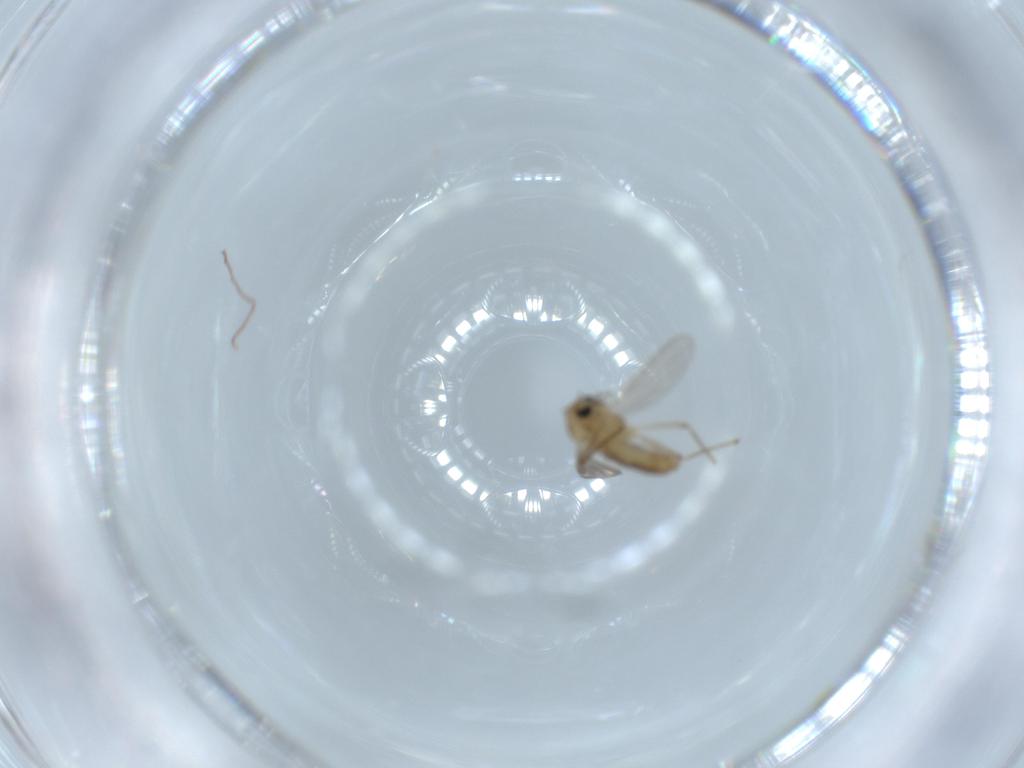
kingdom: Animalia
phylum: Arthropoda
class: Insecta
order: Diptera
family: Chironomidae
